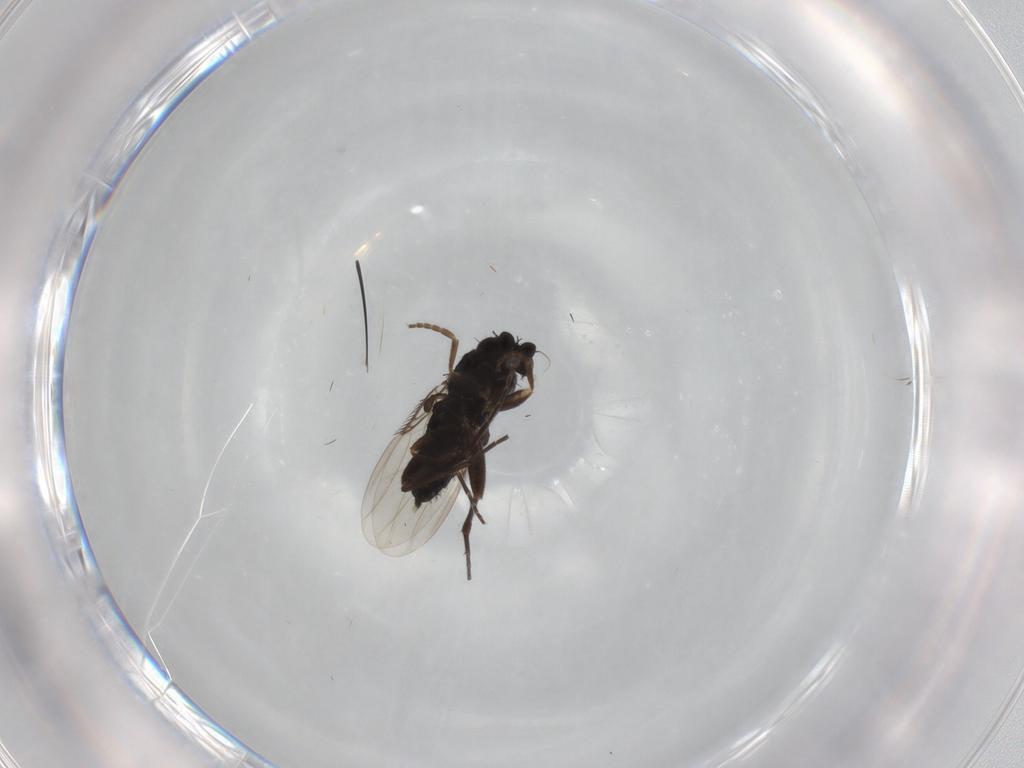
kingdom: Animalia
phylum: Arthropoda
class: Insecta
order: Diptera
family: Phoridae
